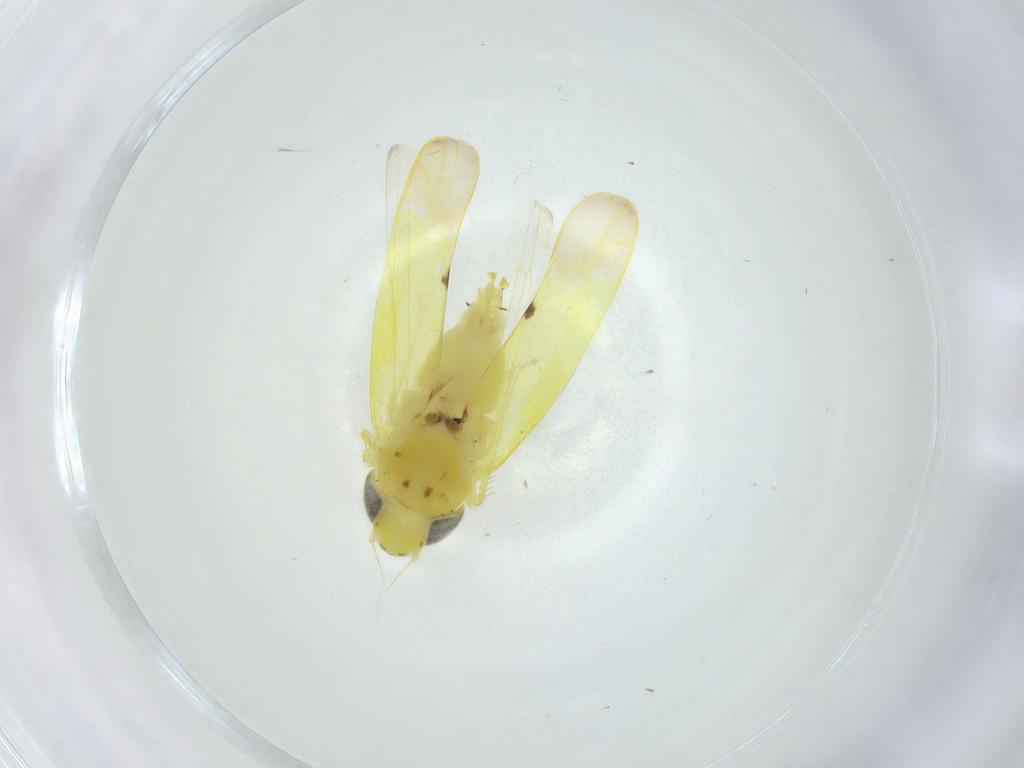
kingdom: Animalia
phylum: Arthropoda
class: Insecta
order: Hemiptera
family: Cicadellidae
